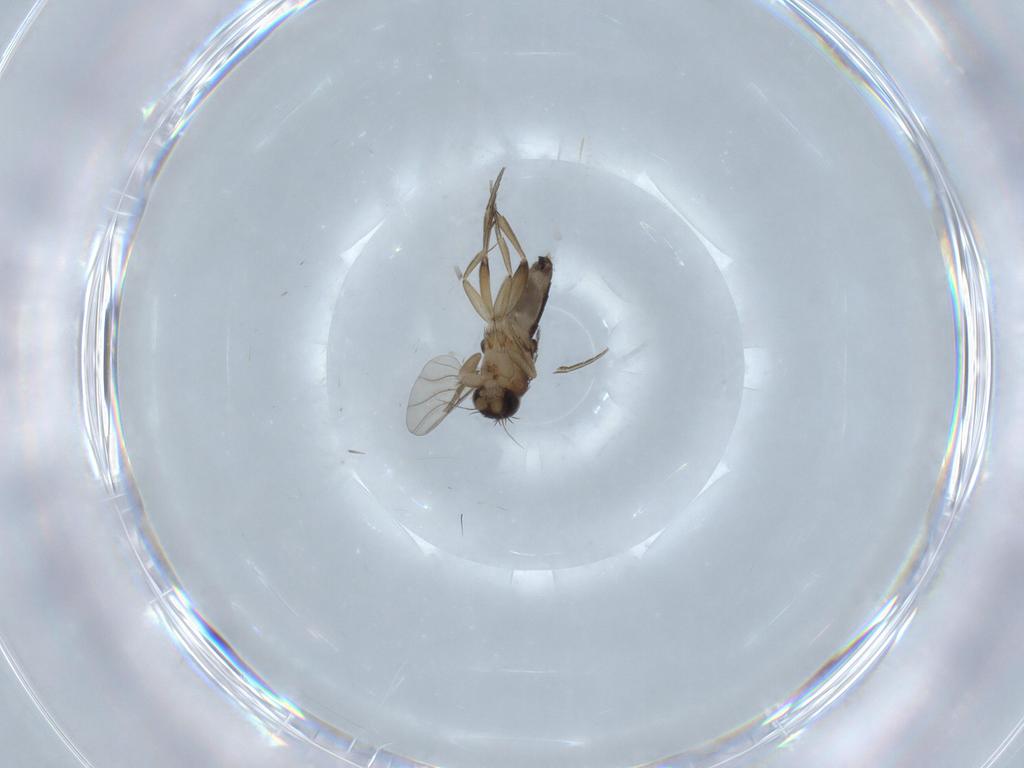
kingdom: Animalia
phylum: Arthropoda
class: Insecta
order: Diptera
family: Phoridae
